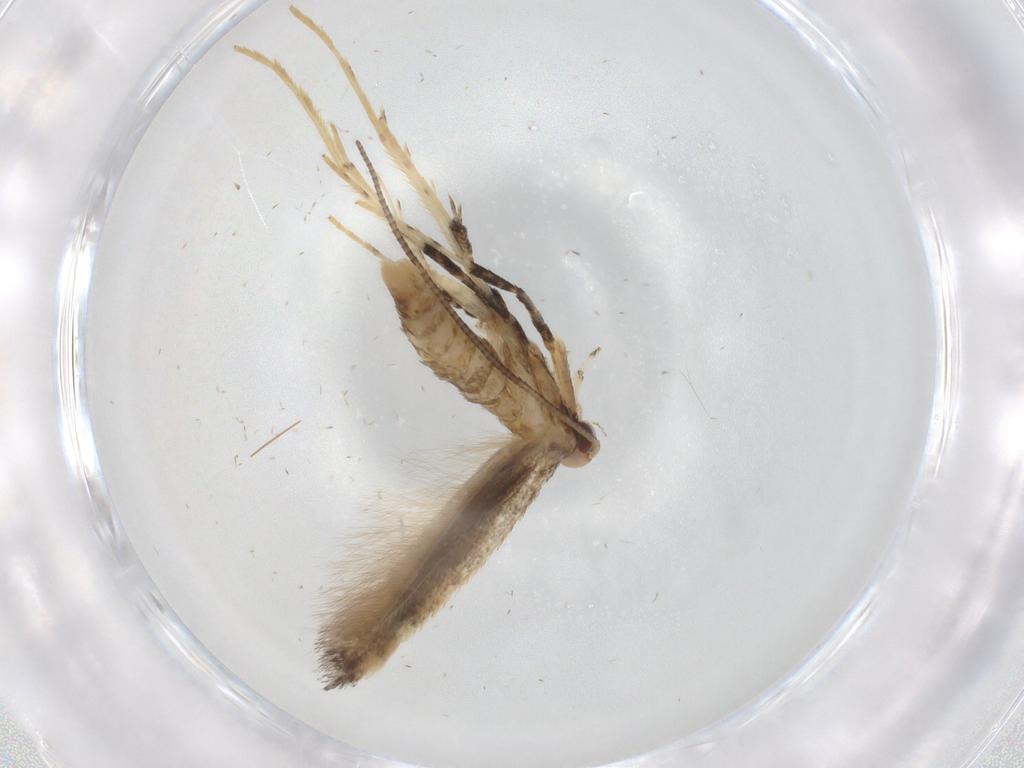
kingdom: Animalia
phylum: Arthropoda
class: Insecta
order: Lepidoptera
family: Gracillariidae
